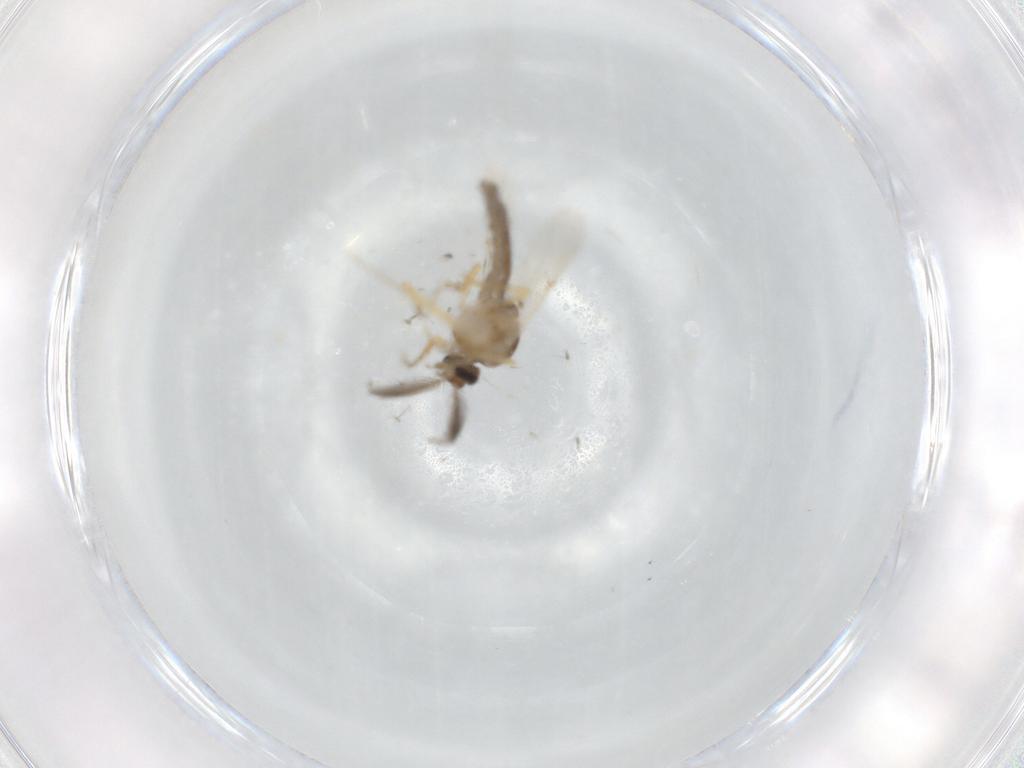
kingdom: Animalia
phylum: Arthropoda
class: Insecta
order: Diptera
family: Ceratopogonidae
